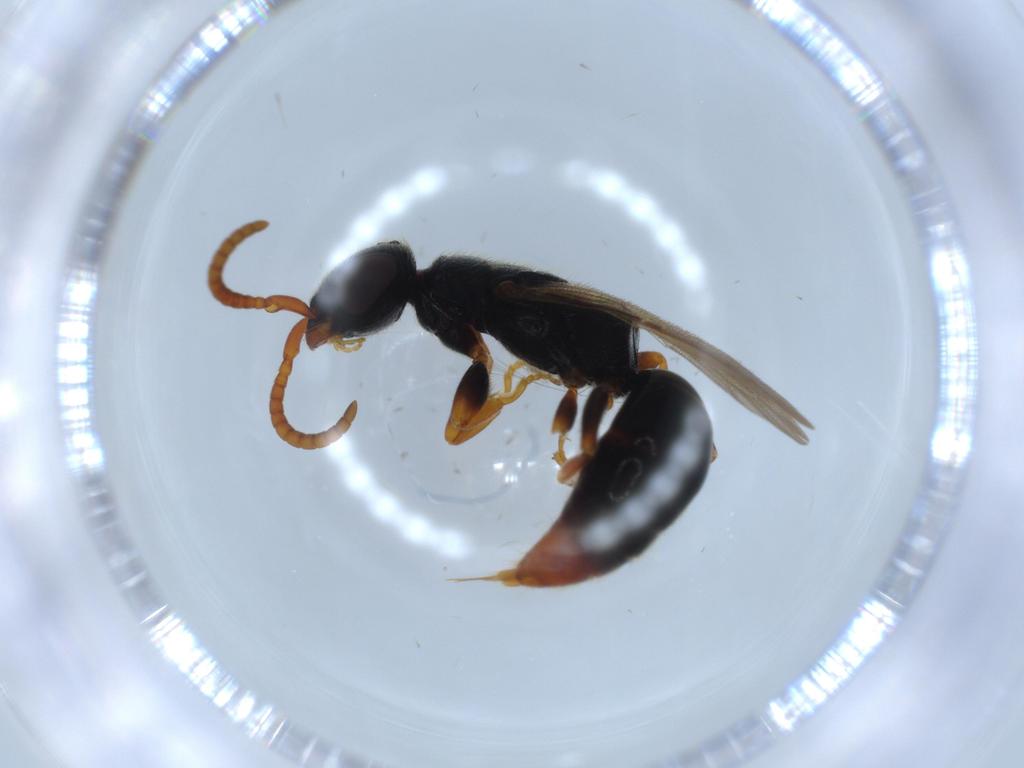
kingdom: Animalia
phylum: Arthropoda
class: Insecta
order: Hymenoptera
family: Bethylidae
